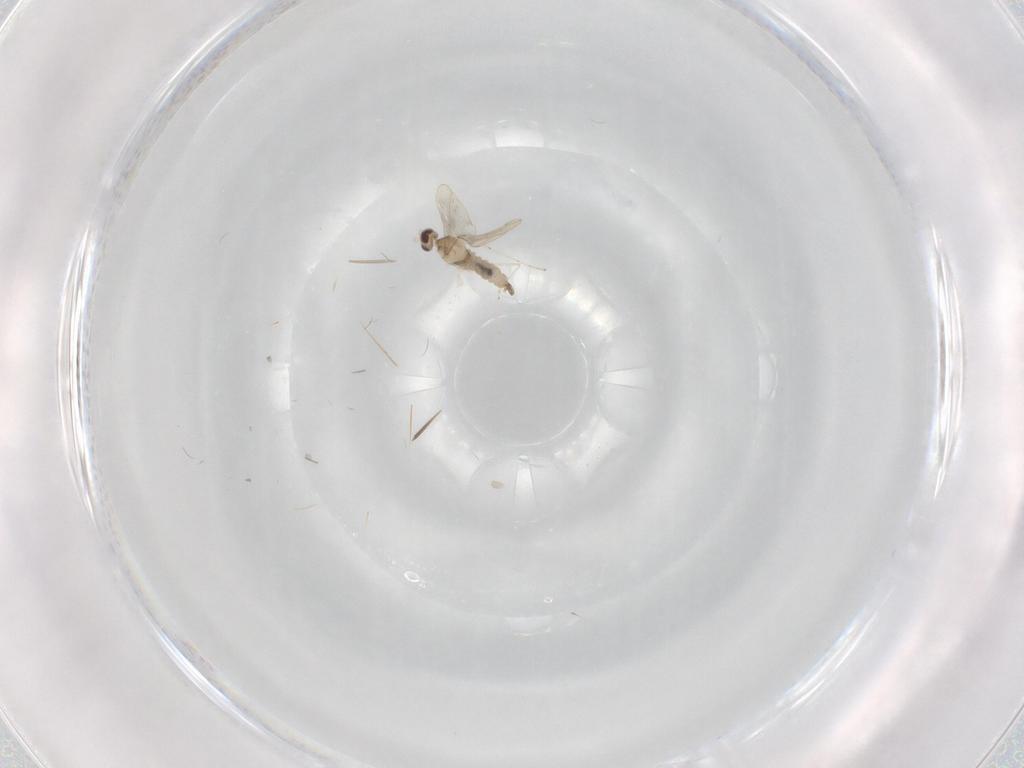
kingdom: Animalia
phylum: Arthropoda
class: Insecta
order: Diptera
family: Cecidomyiidae
